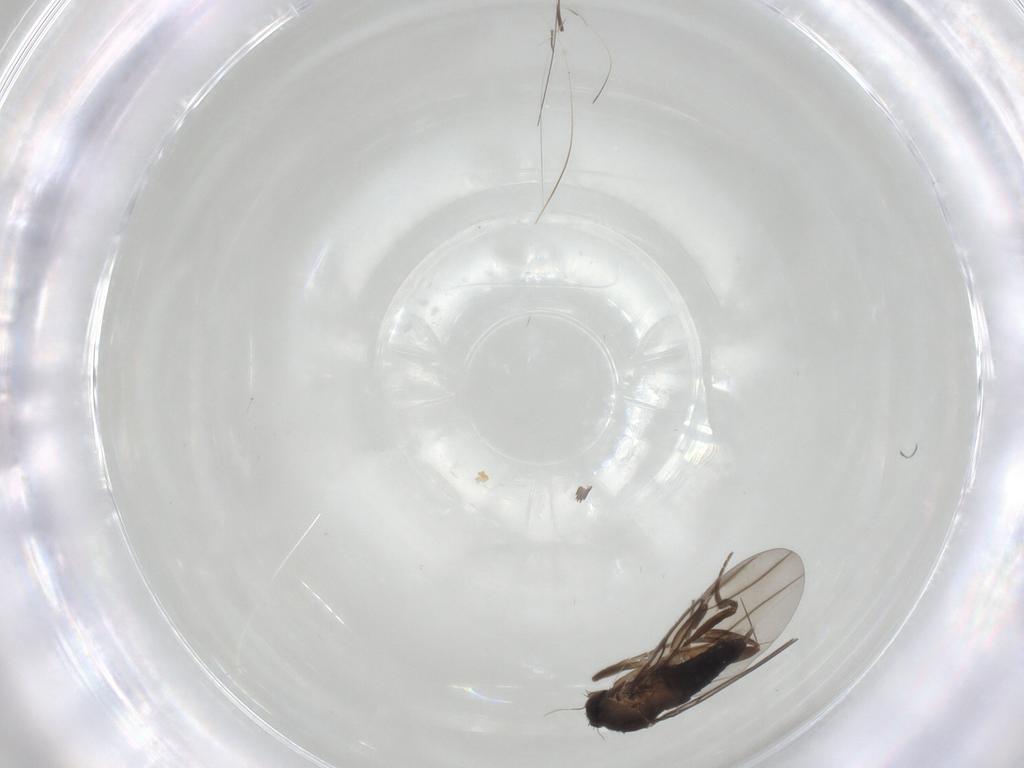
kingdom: Animalia
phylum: Arthropoda
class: Insecta
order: Diptera
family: Phoridae
